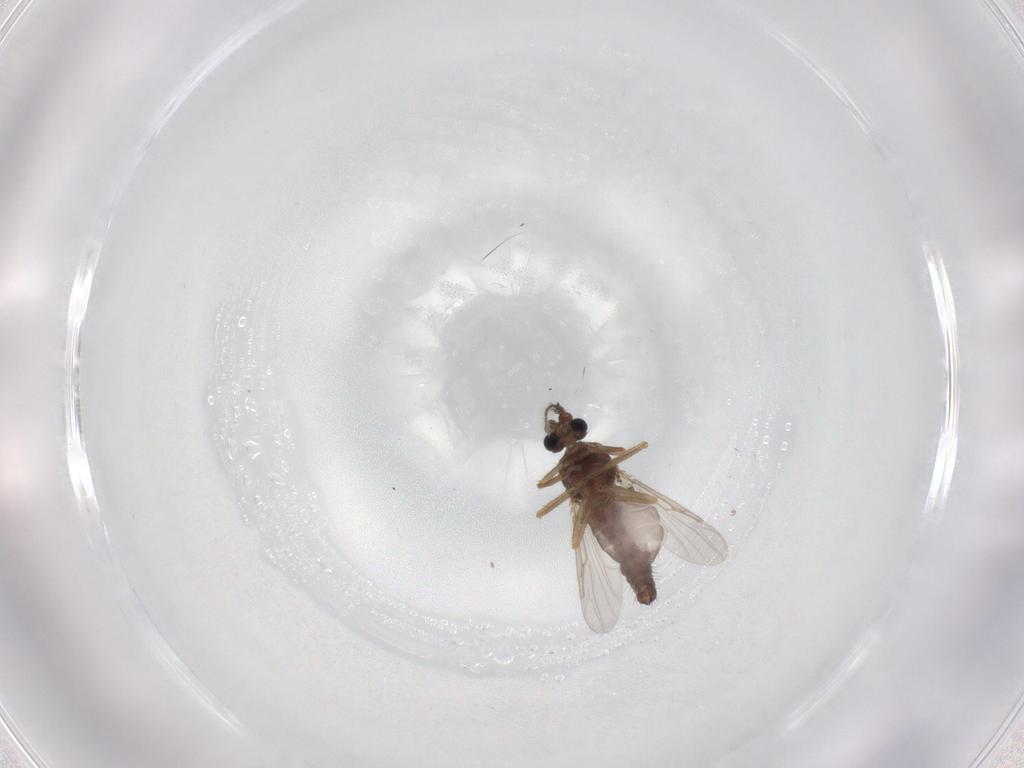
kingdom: Animalia
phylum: Arthropoda
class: Insecta
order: Diptera
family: Ceratopogonidae
